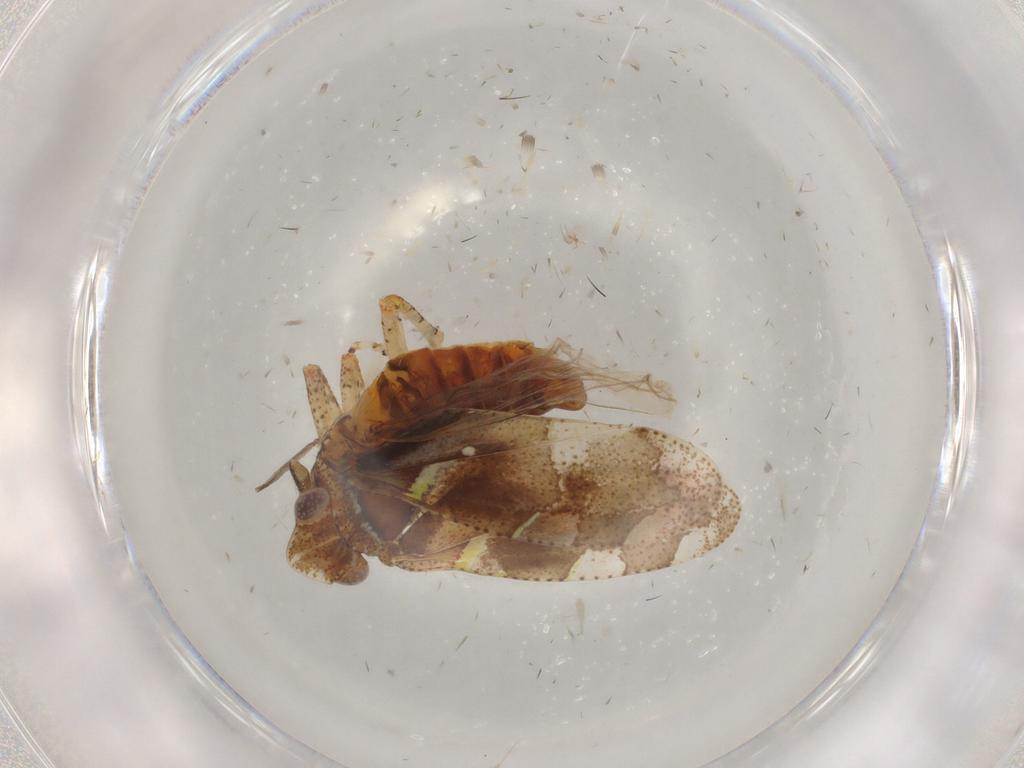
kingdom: Animalia
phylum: Arthropoda
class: Insecta
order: Hemiptera
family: Tettigometridae
